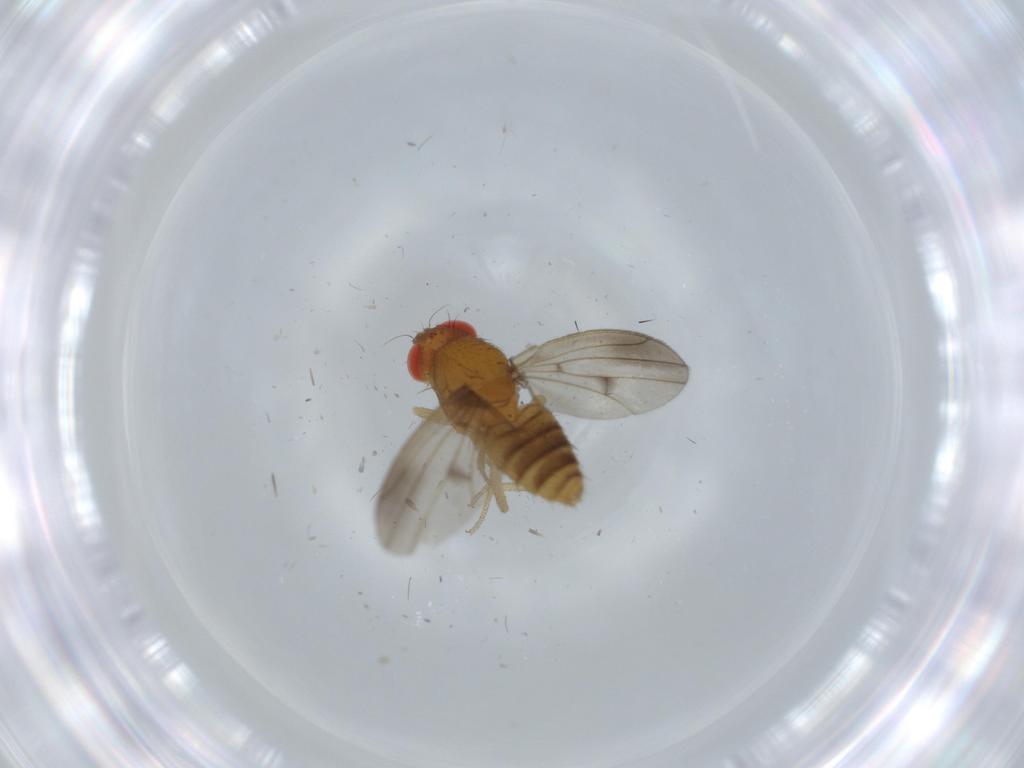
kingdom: Animalia
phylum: Arthropoda
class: Insecta
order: Diptera
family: Drosophilidae
